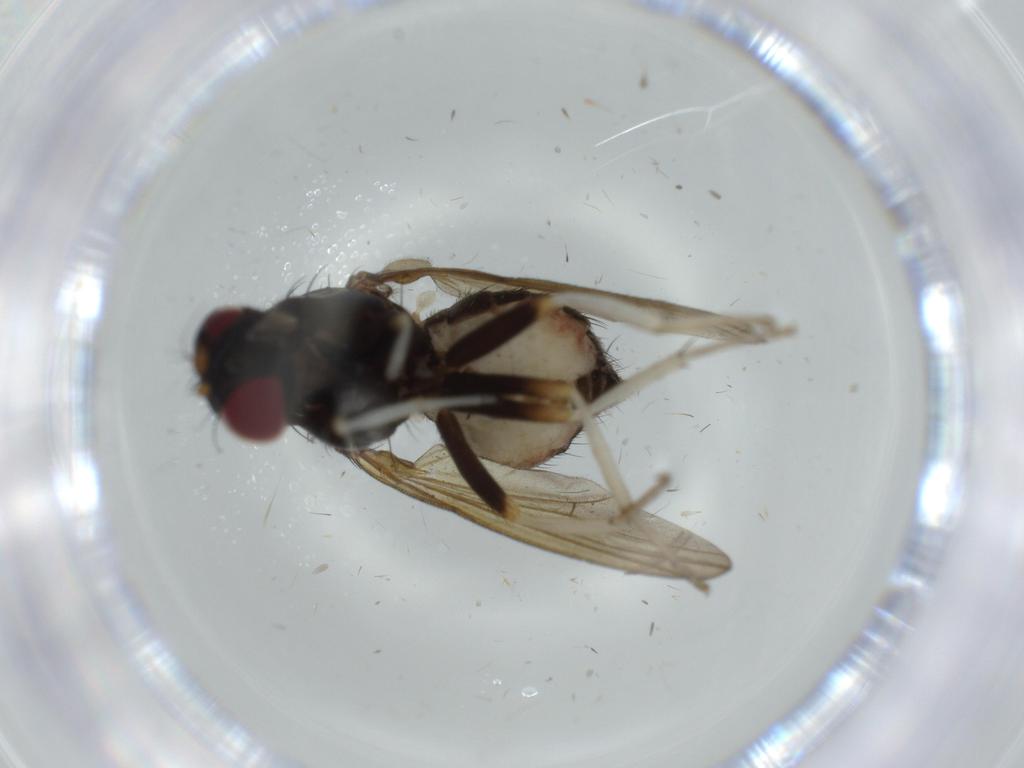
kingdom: Animalia
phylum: Arthropoda
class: Insecta
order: Diptera
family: Lauxaniidae
